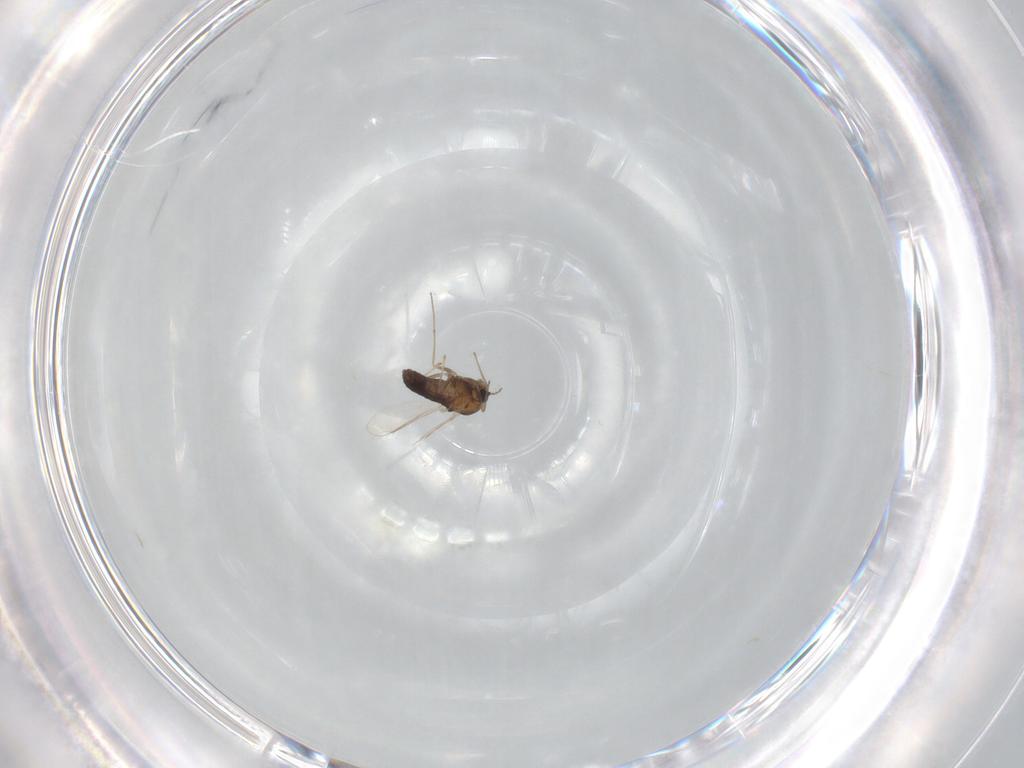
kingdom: Animalia
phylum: Arthropoda
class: Insecta
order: Diptera
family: Chironomidae
